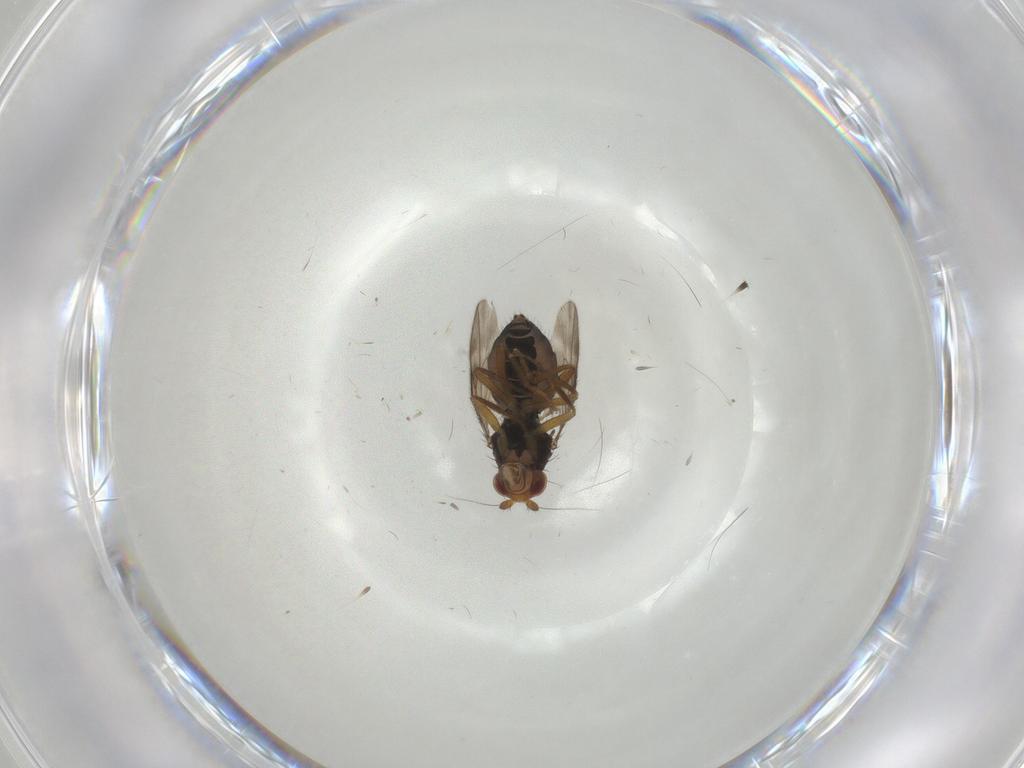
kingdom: Animalia
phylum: Arthropoda
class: Insecta
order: Diptera
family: Sphaeroceridae
